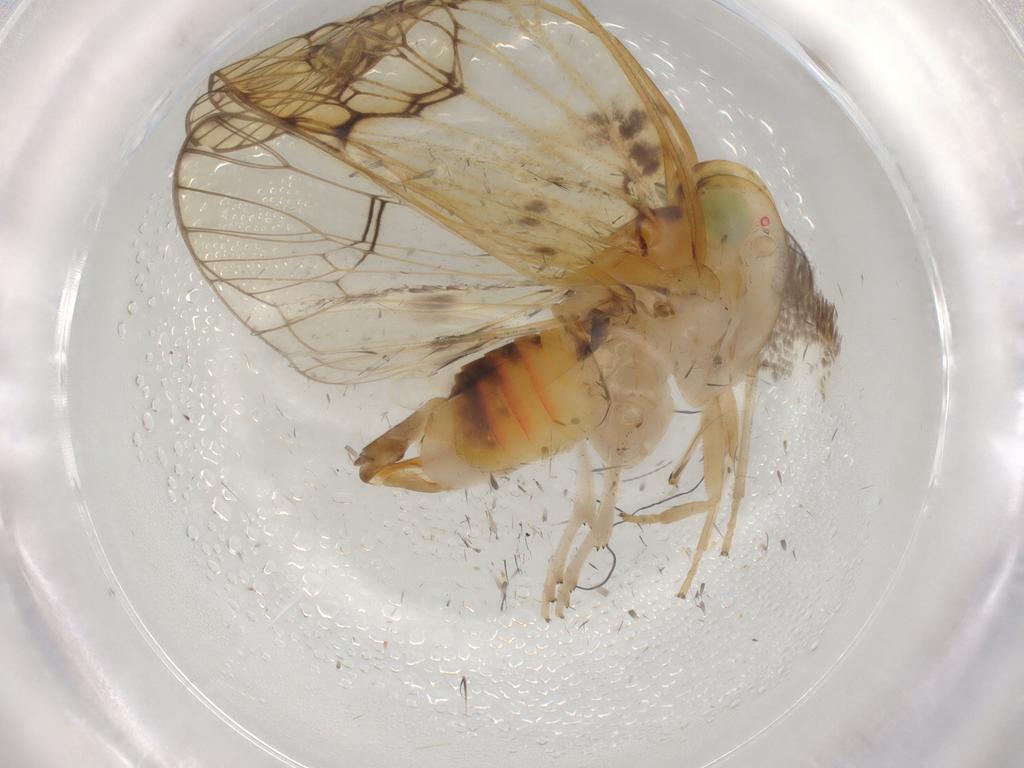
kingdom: Animalia
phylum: Arthropoda
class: Insecta
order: Hemiptera
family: Cixiidae
